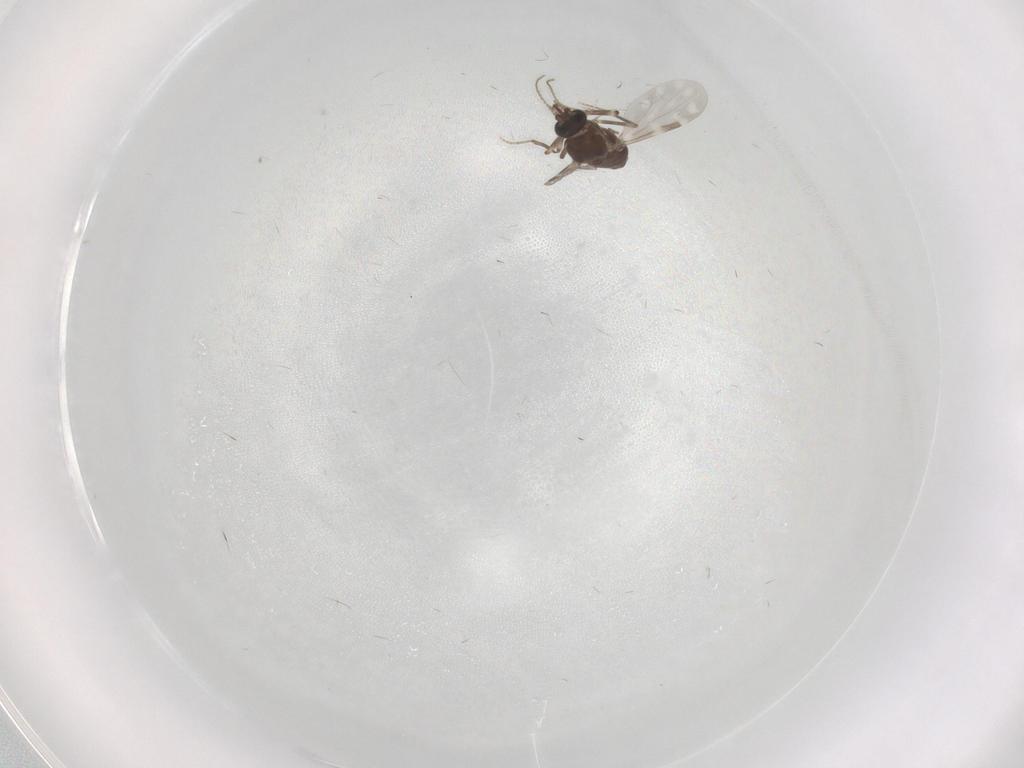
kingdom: Animalia
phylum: Arthropoda
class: Insecta
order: Diptera
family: Ceratopogonidae
